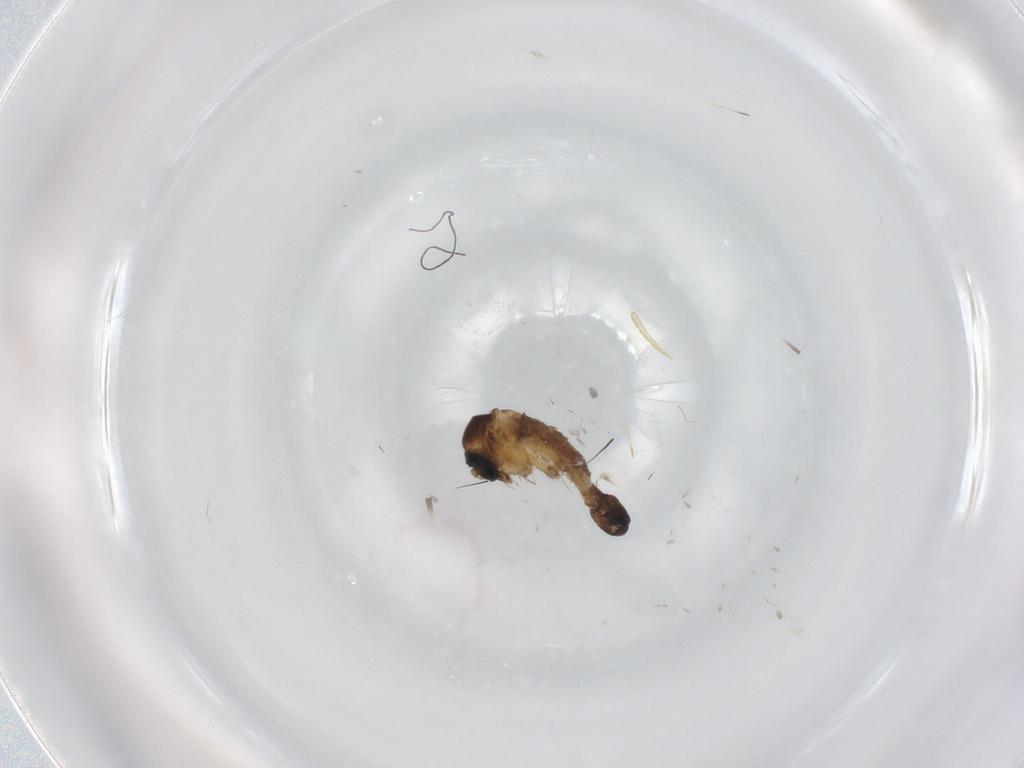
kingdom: Animalia
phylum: Arthropoda
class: Insecta
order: Diptera
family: Sciaridae
